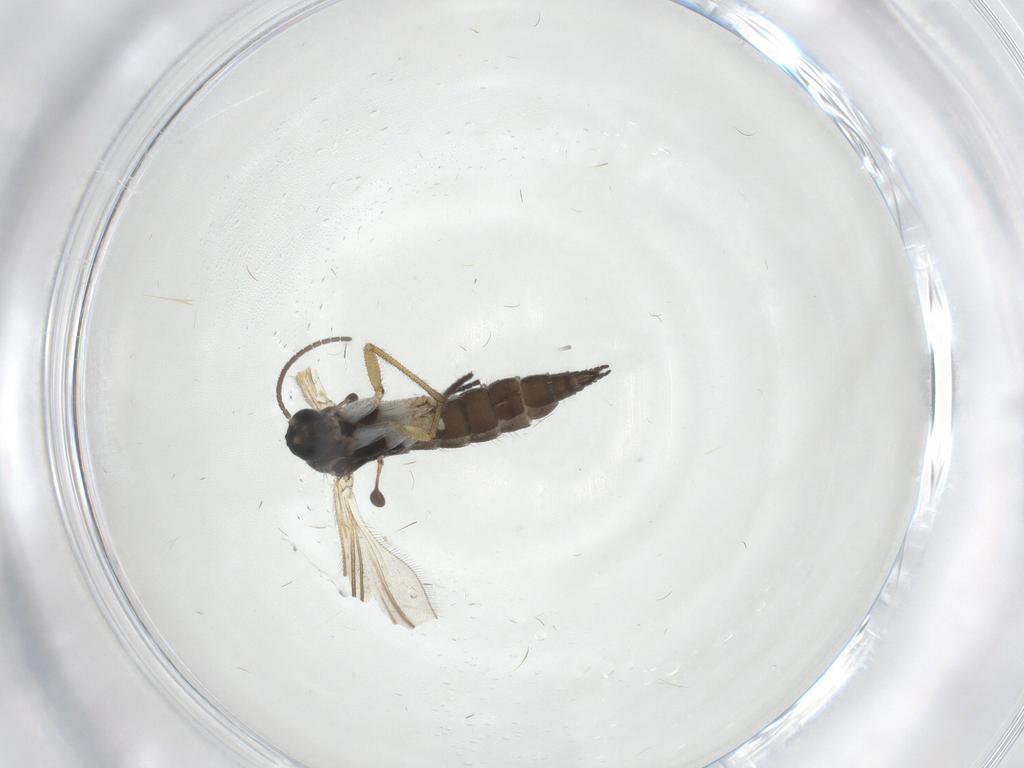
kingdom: Animalia
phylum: Arthropoda
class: Insecta
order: Diptera
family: Sciaridae
